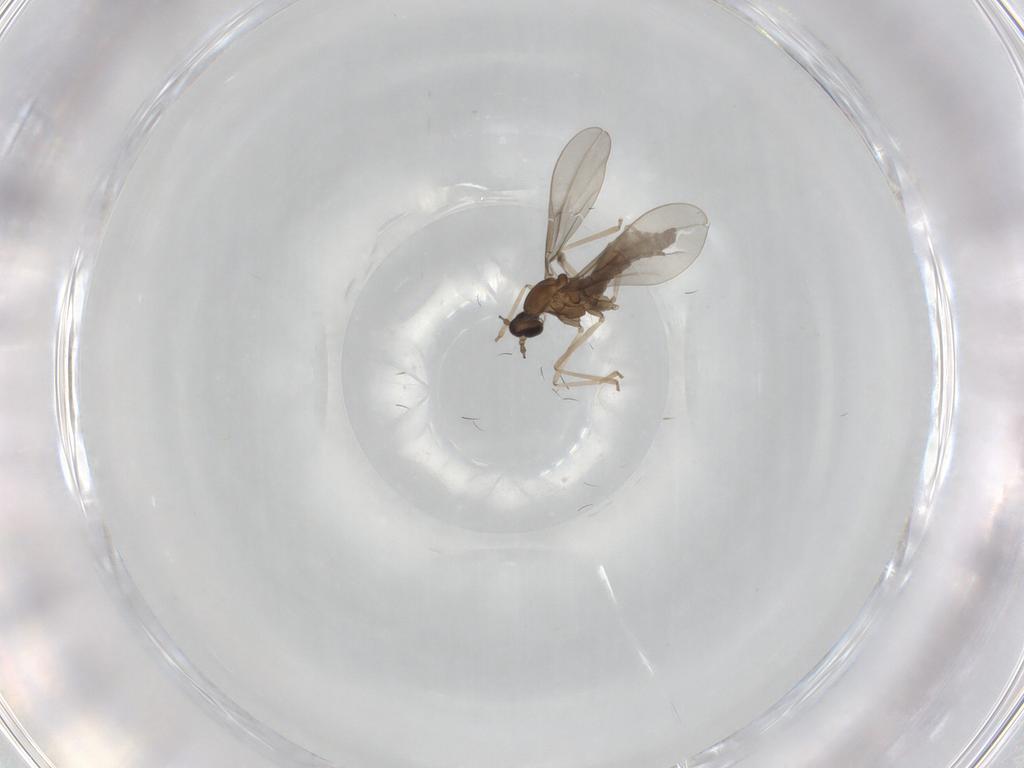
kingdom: Animalia
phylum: Arthropoda
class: Insecta
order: Diptera
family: Tabanidae
